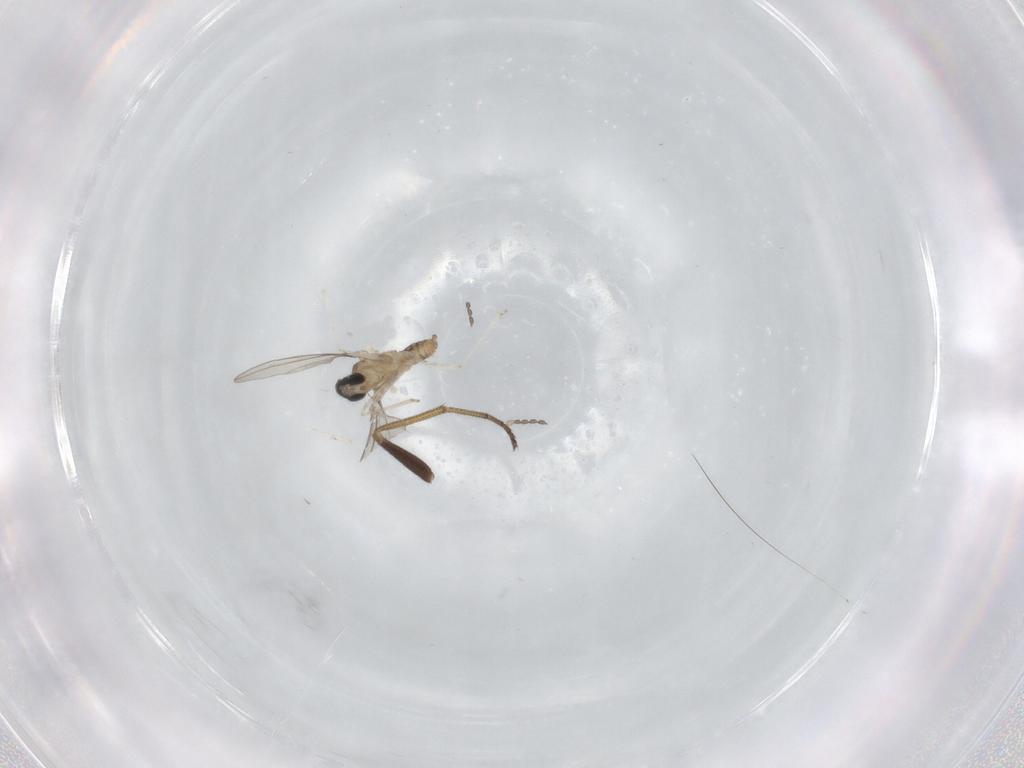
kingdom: Animalia
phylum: Arthropoda
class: Insecta
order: Diptera
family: Dolichopodidae
